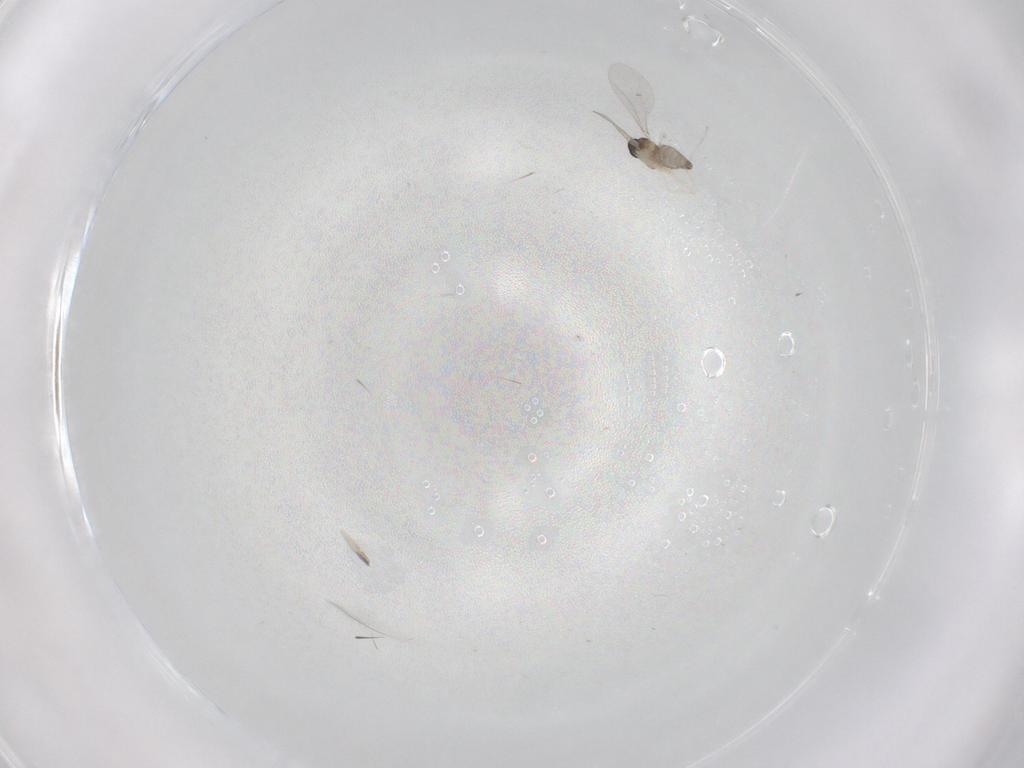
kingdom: Animalia
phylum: Arthropoda
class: Insecta
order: Diptera
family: Cecidomyiidae
